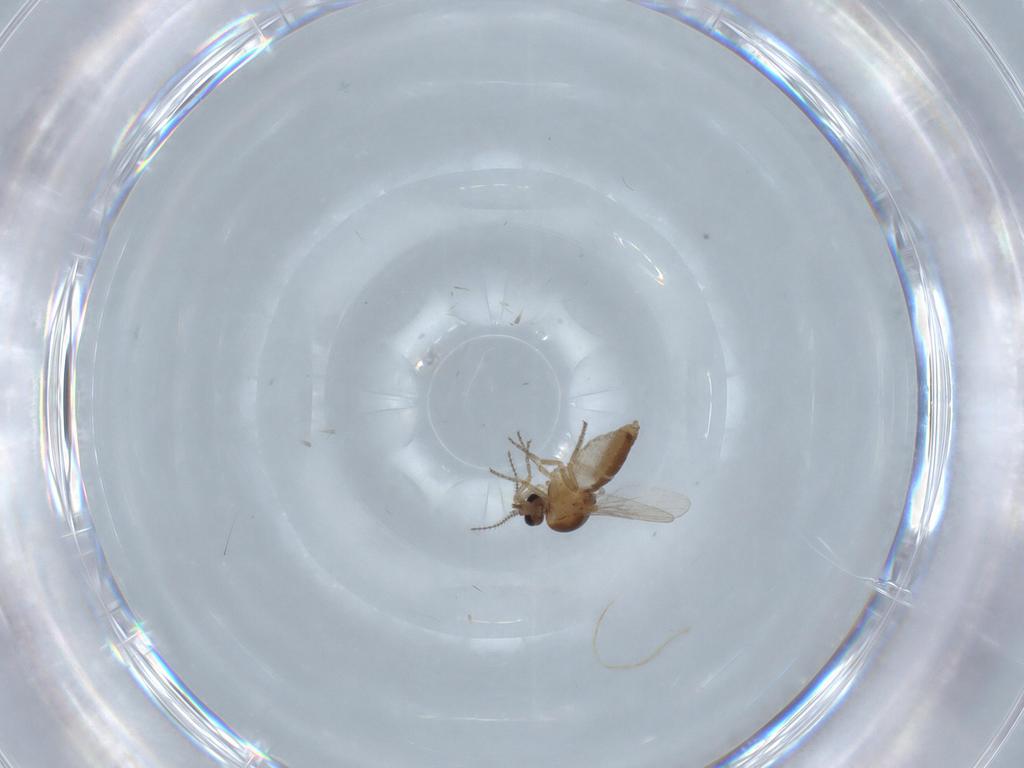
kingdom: Animalia
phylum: Arthropoda
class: Insecta
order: Diptera
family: Ceratopogonidae
